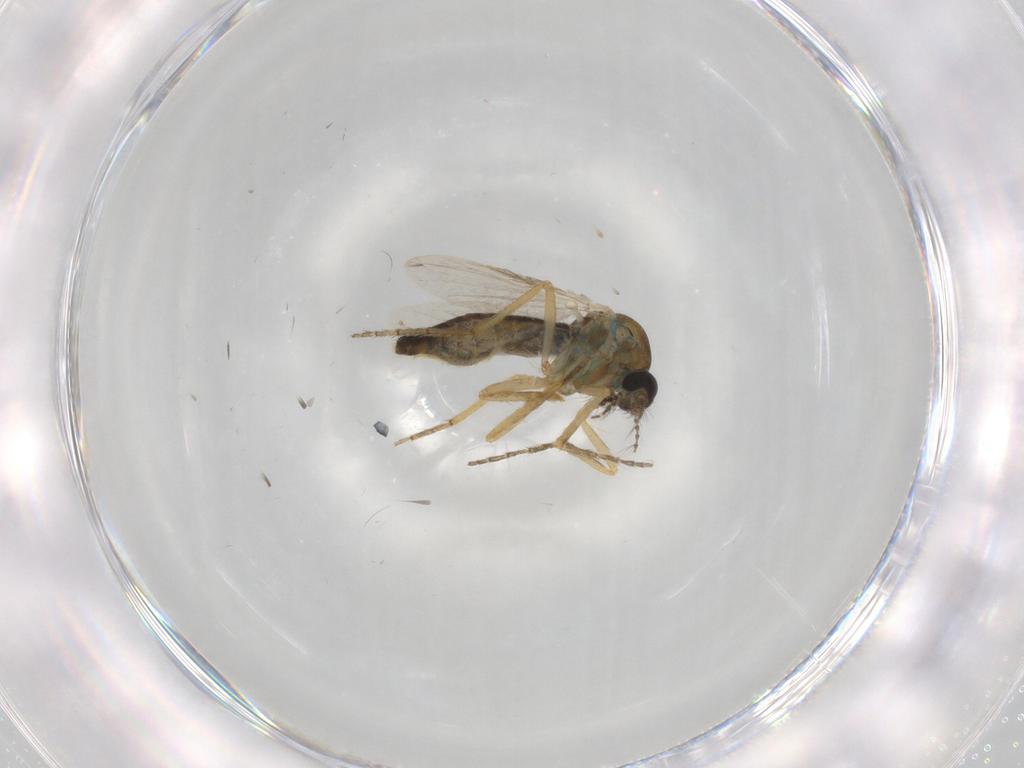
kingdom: Animalia
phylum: Arthropoda
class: Insecta
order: Diptera
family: Ceratopogonidae
